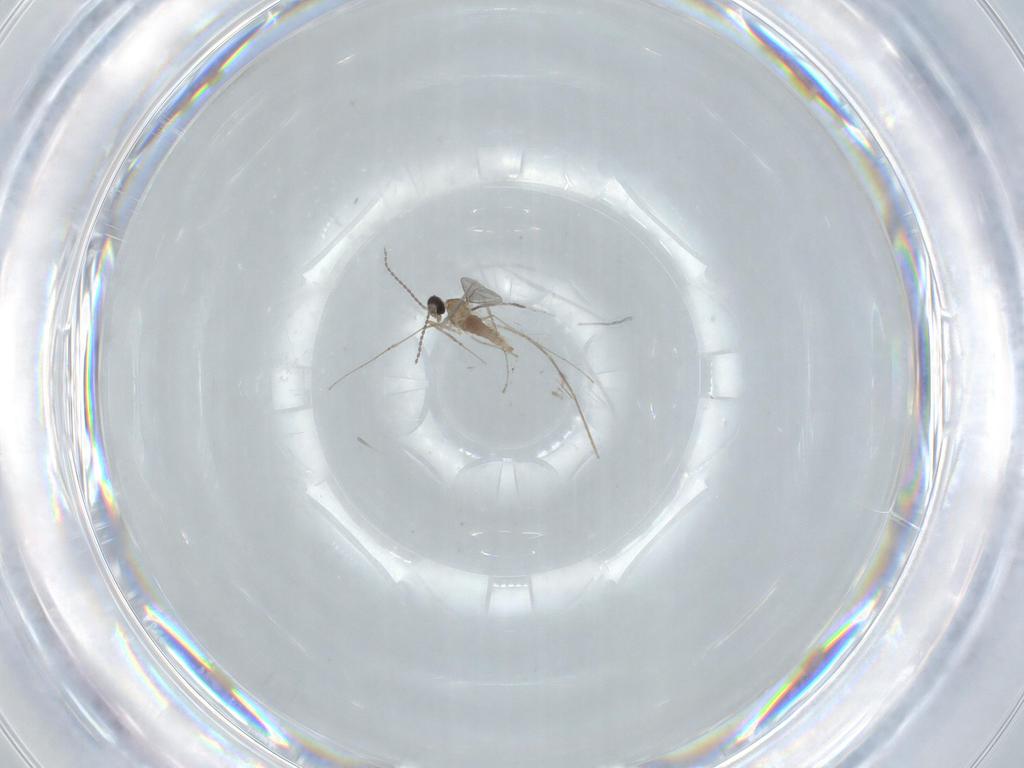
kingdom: Animalia
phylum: Arthropoda
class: Insecta
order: Diptera
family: Cecidomyiidae
